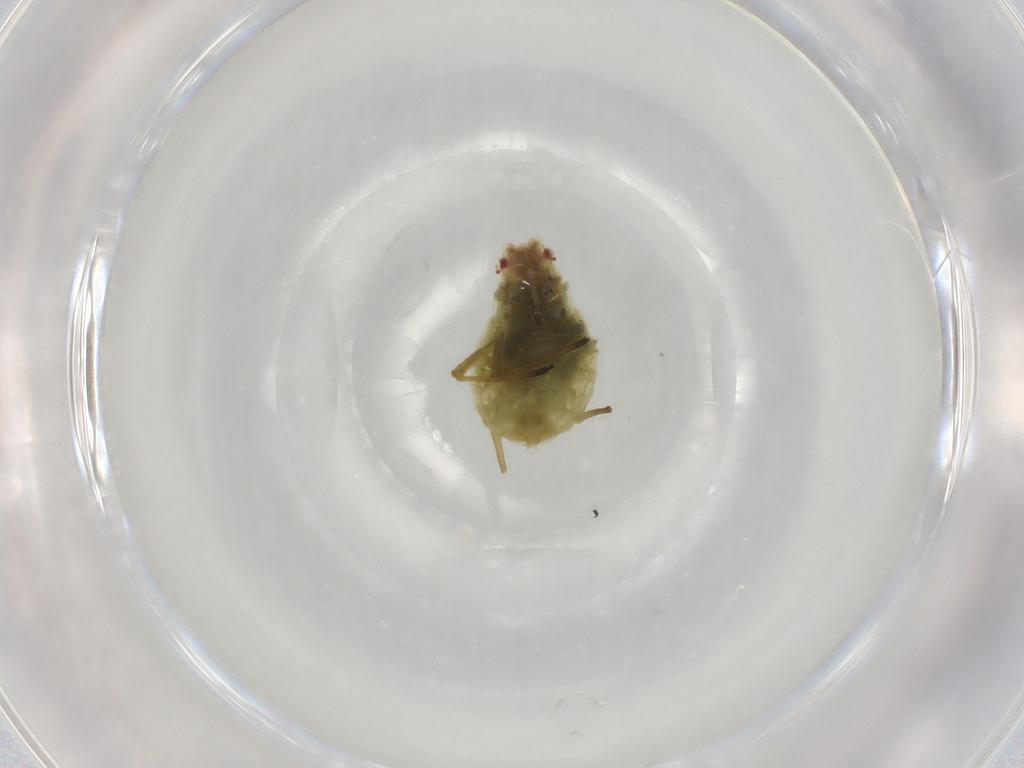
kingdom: Animalia
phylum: Arthropoda
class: Insecta
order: Hemiptera
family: Aphididae
